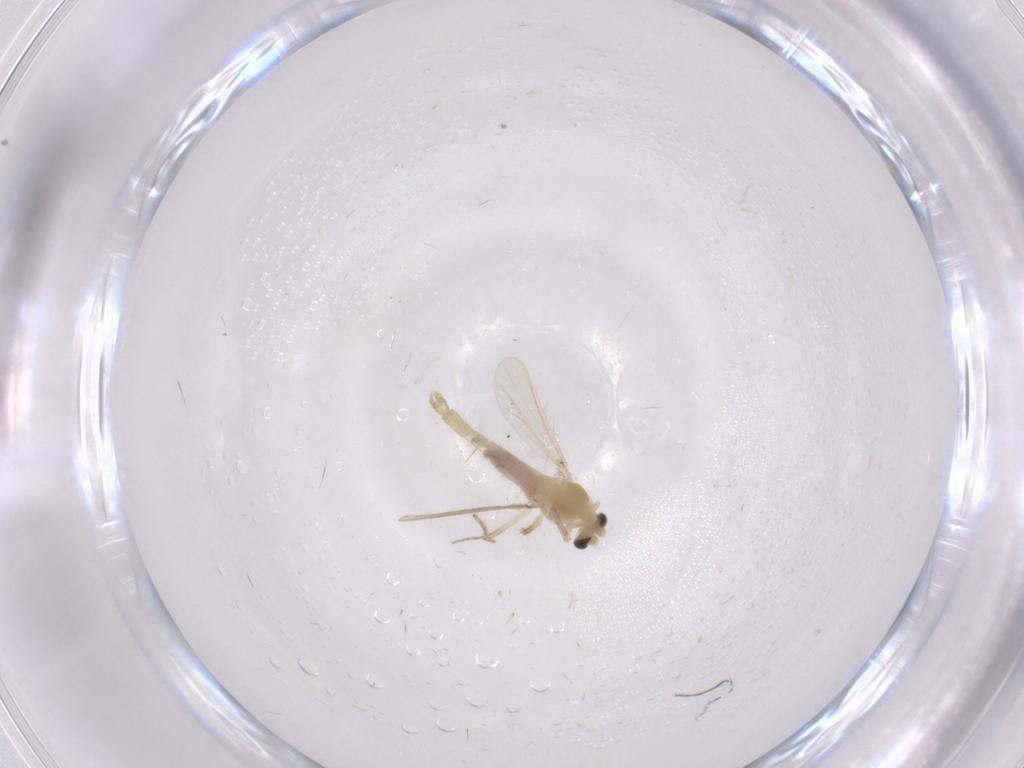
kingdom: Animalia
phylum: Arthropoda
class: Insecta
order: Diptera
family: Chironomidae
